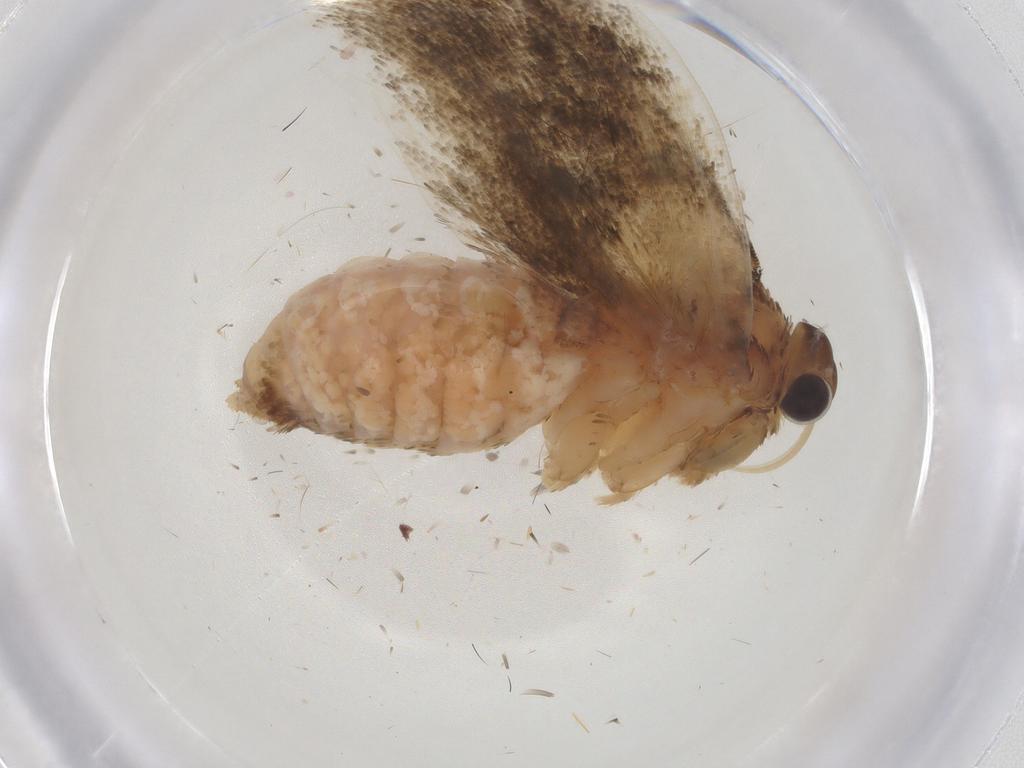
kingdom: Animalia
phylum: Arthropoda
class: Insecta
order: Lepidoptera
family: Tortricidae
